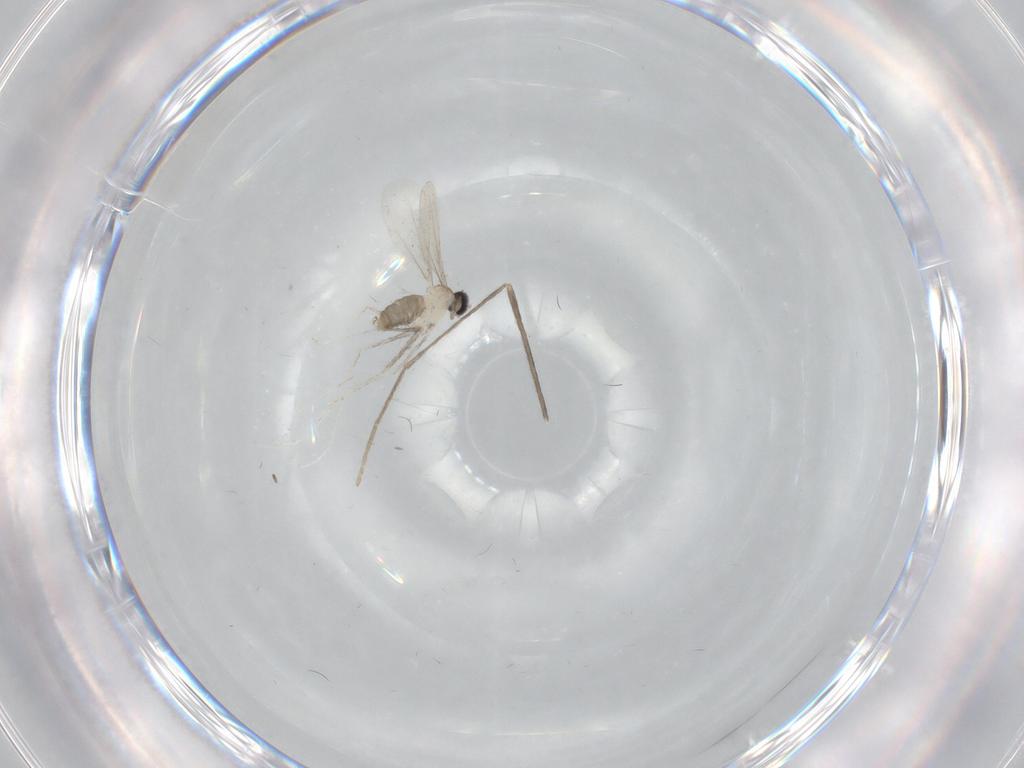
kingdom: Animalia
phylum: Arthropoda
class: Insecta
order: Diptera
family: Cecidomyiidae
